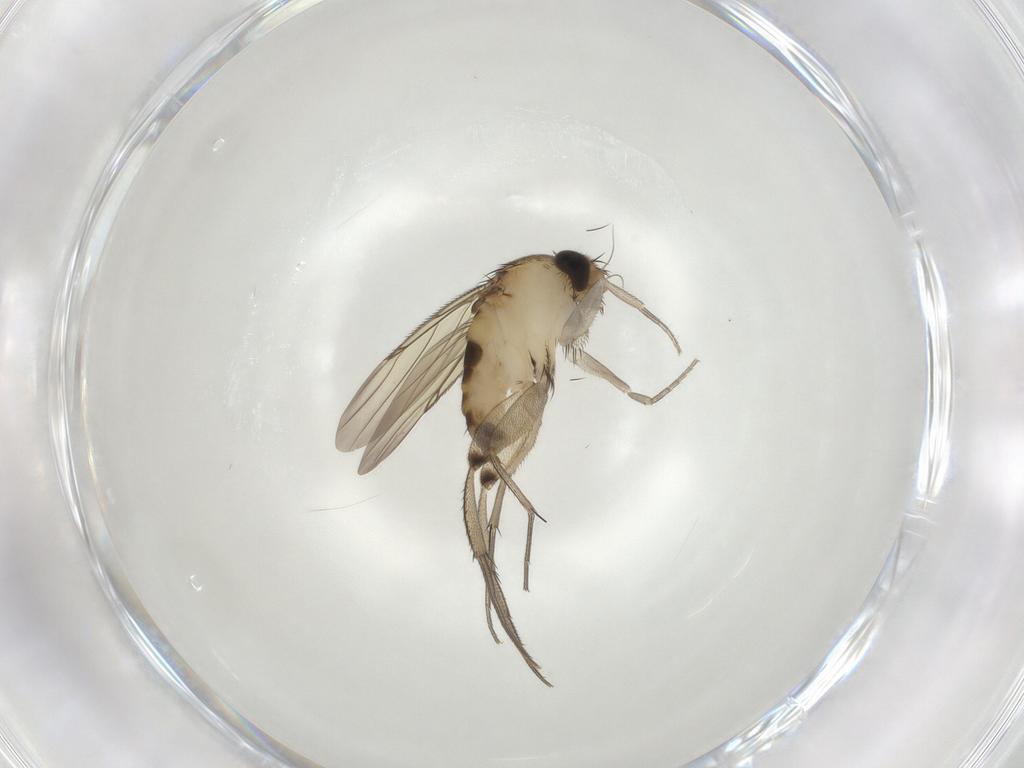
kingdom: Animalia
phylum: Arthropoda
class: Insecta
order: Diptera
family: Phoridae
